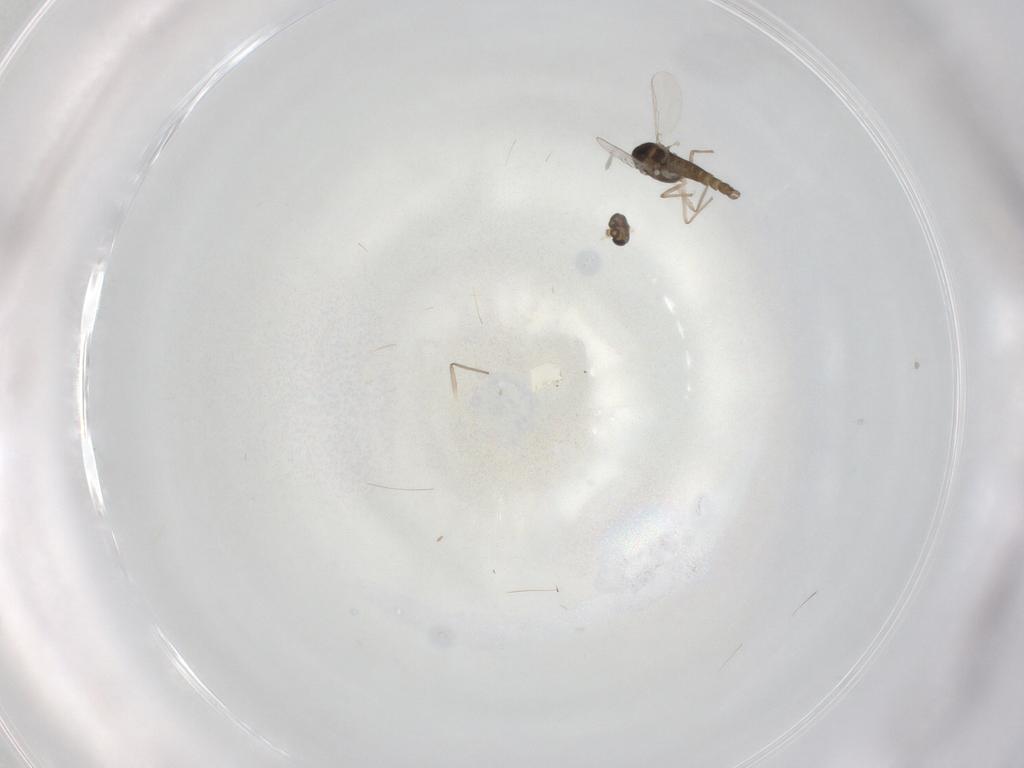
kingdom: Animalia
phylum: Arthropoda
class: Insecta
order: Diptera
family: Chironomidae
